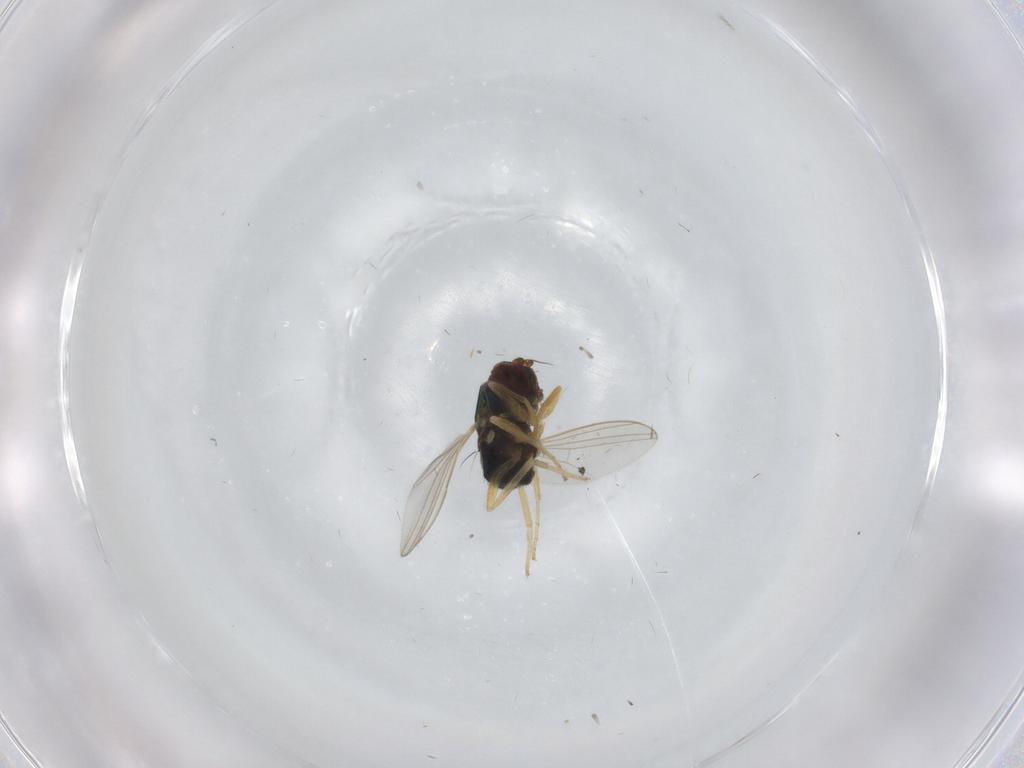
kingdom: Animalia
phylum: Arthropoda
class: Insecta
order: Diptera
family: Dolichopodidae
